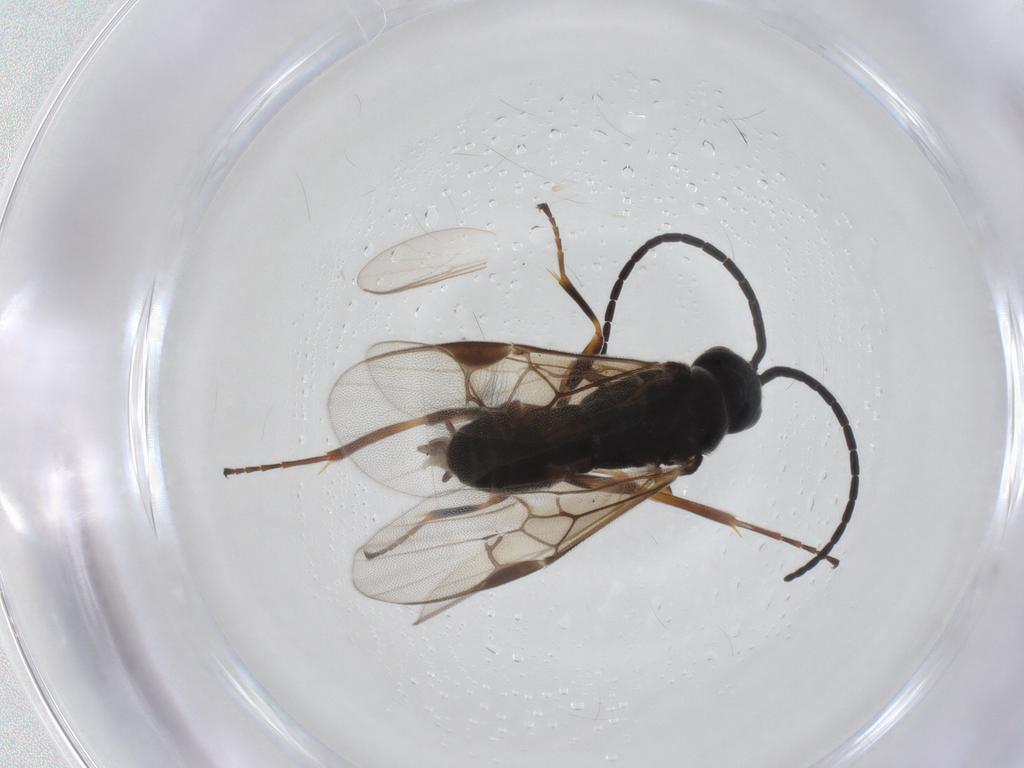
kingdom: Animalia
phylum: Arthropoda
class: Insecta
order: Hymenoptera
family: Braconidae
